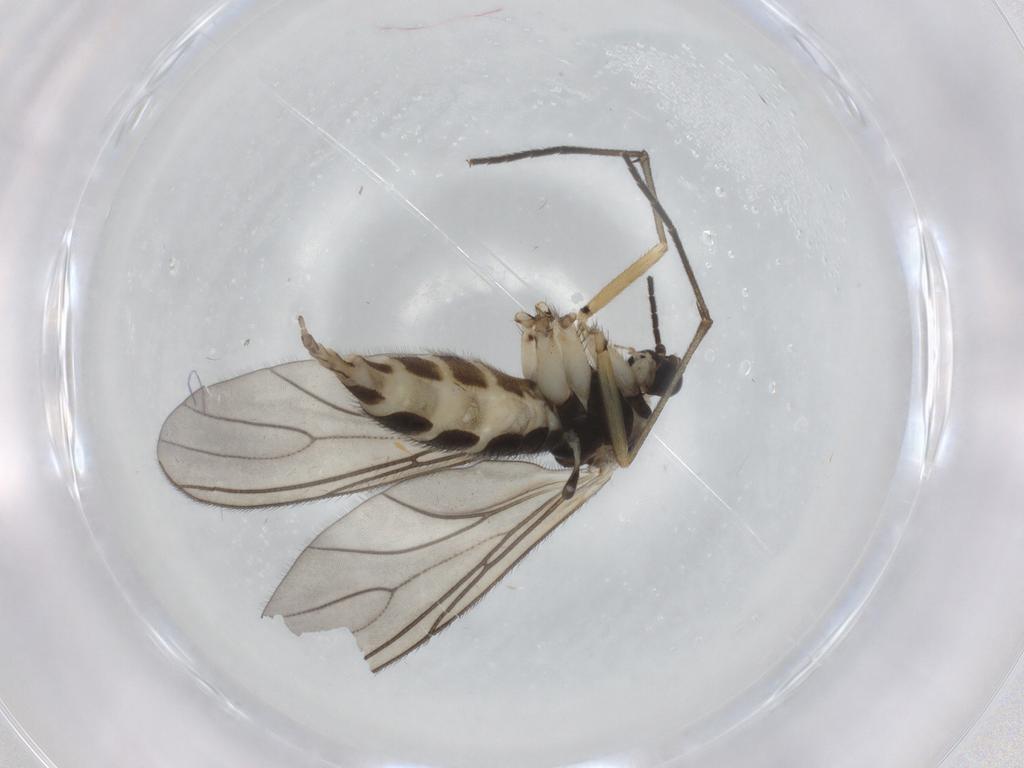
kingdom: Animalia
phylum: Arthropoda
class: Insecta
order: Diptera
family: Sciaridae
